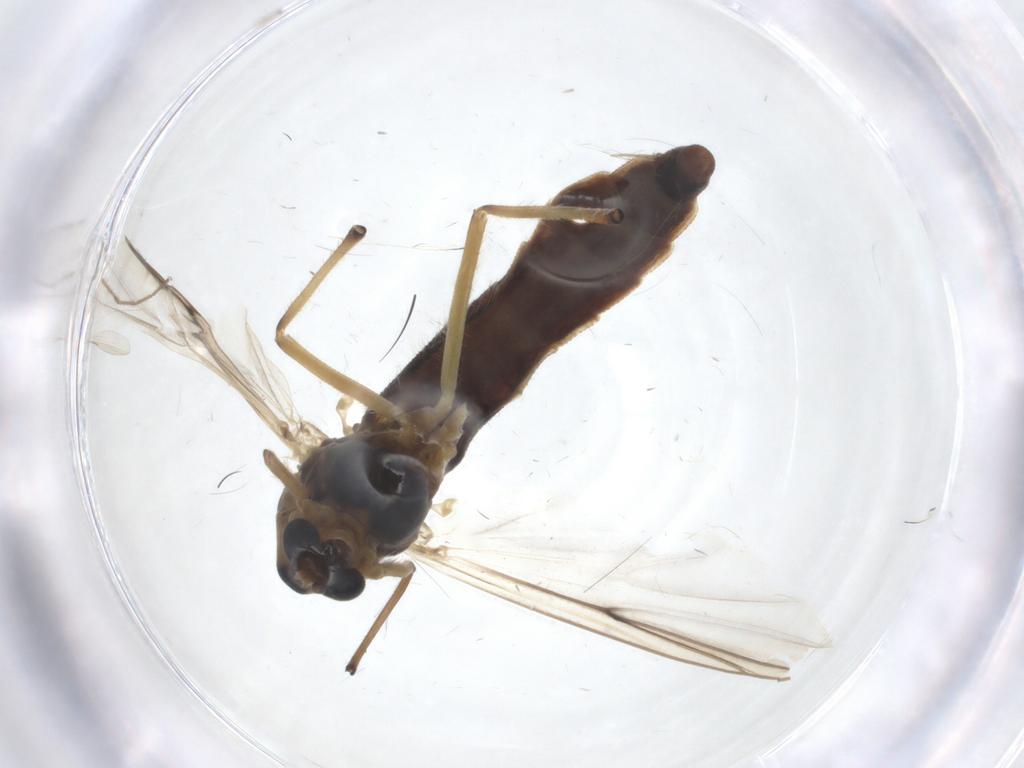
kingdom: Animalia
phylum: Arthropoda
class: Insecta
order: Diptera
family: Chironomidae
